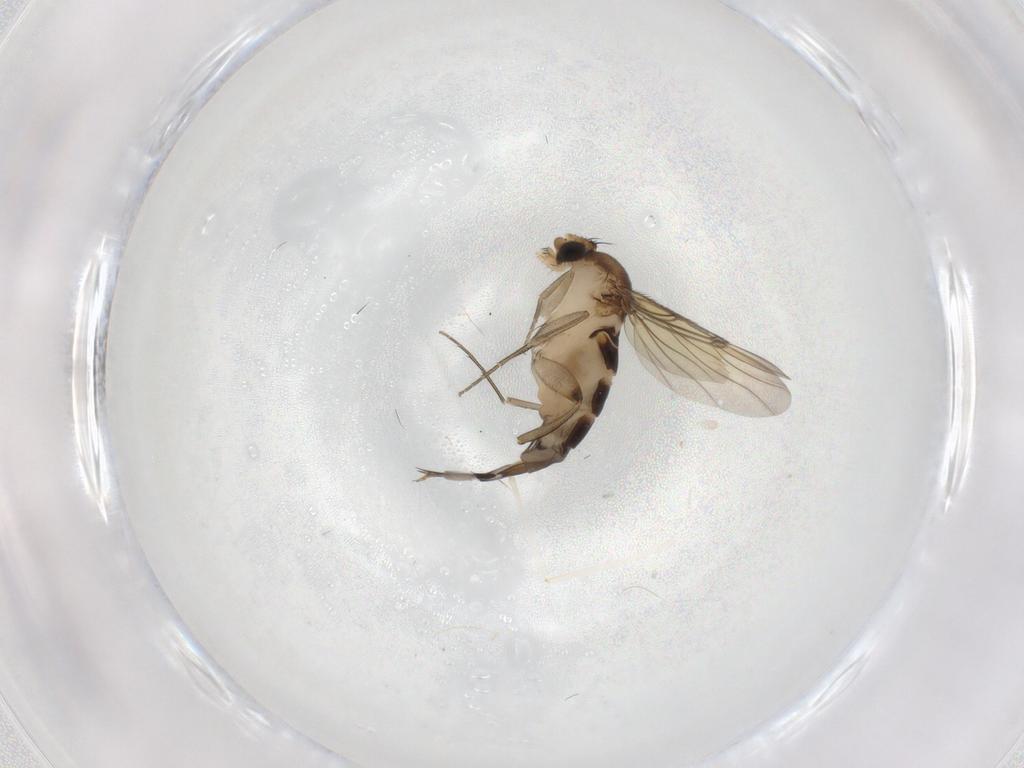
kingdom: Animalia
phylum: Arthropoda
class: Insecta
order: Diptera
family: Phoridae
